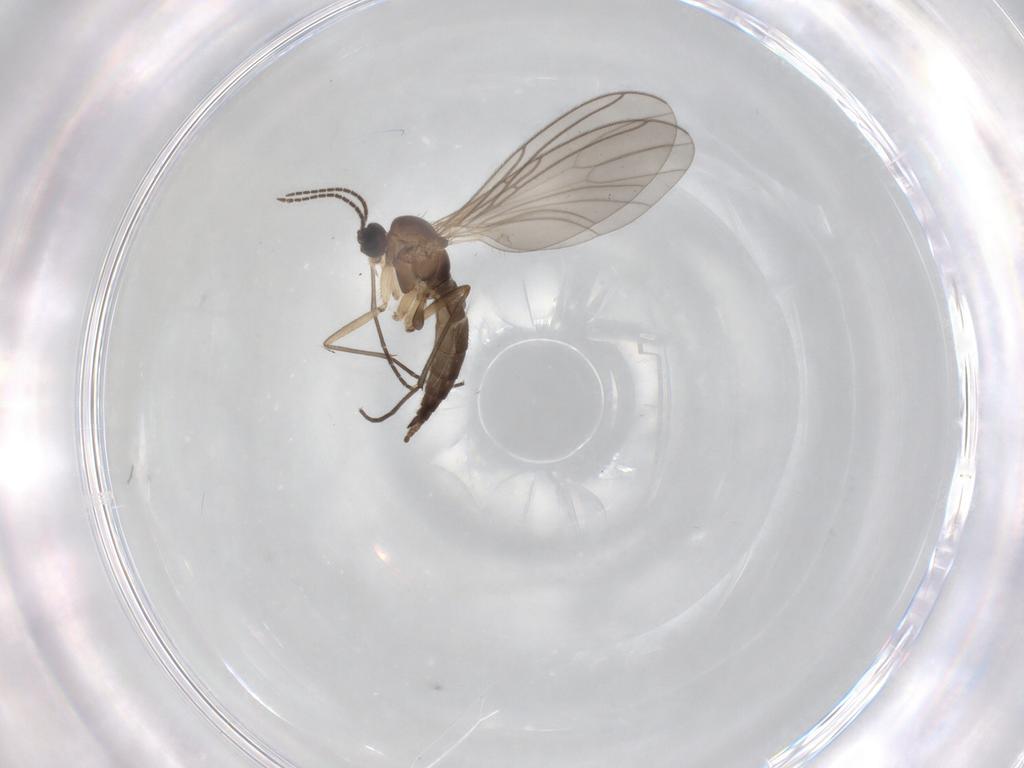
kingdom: Animalia
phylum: Arthropoda
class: Insecta
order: Diptera
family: Sciaridae
